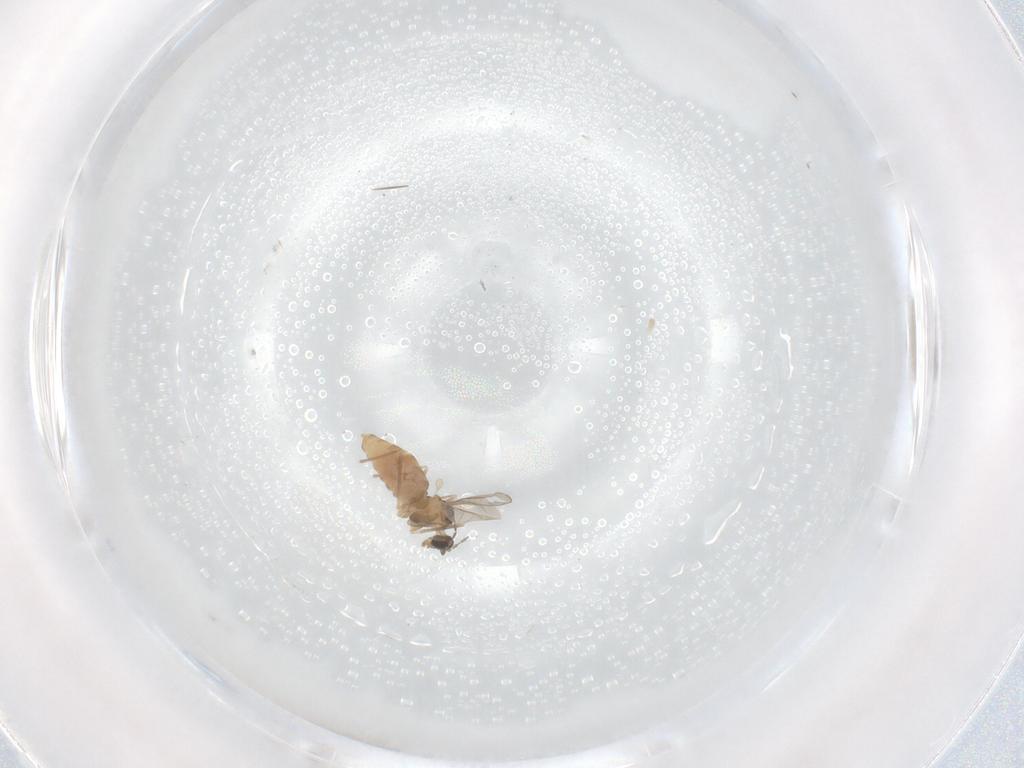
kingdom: Animalia
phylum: Arthropoda
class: Insecta
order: Diptera
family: Cecidomyiidae
